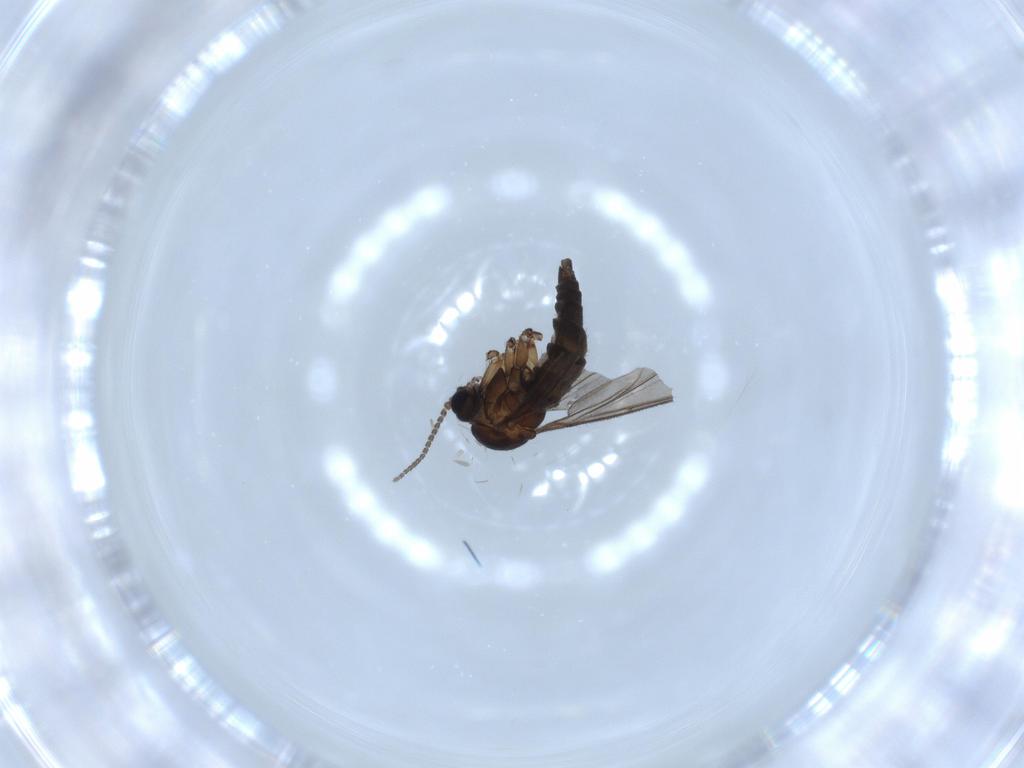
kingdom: Animalia
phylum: Arthropoda
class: Insecta
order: Diptera
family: Sciaridae
